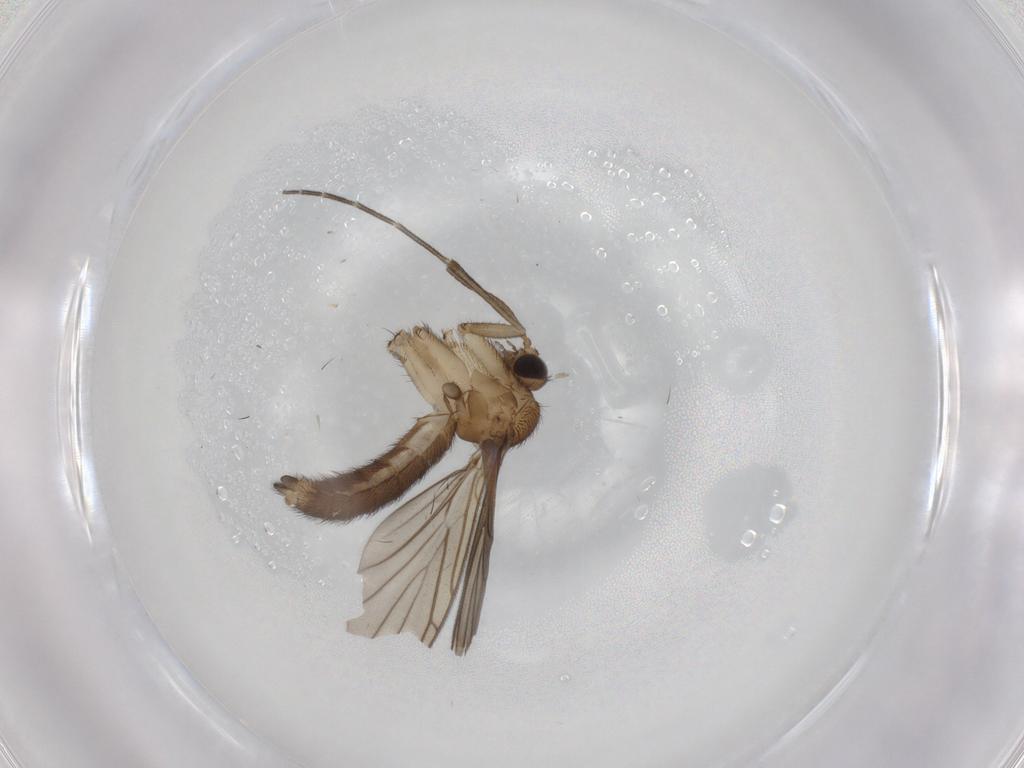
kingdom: Animalia
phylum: Arthropoda
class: Insecta
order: Diptera
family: Keroplatidae
